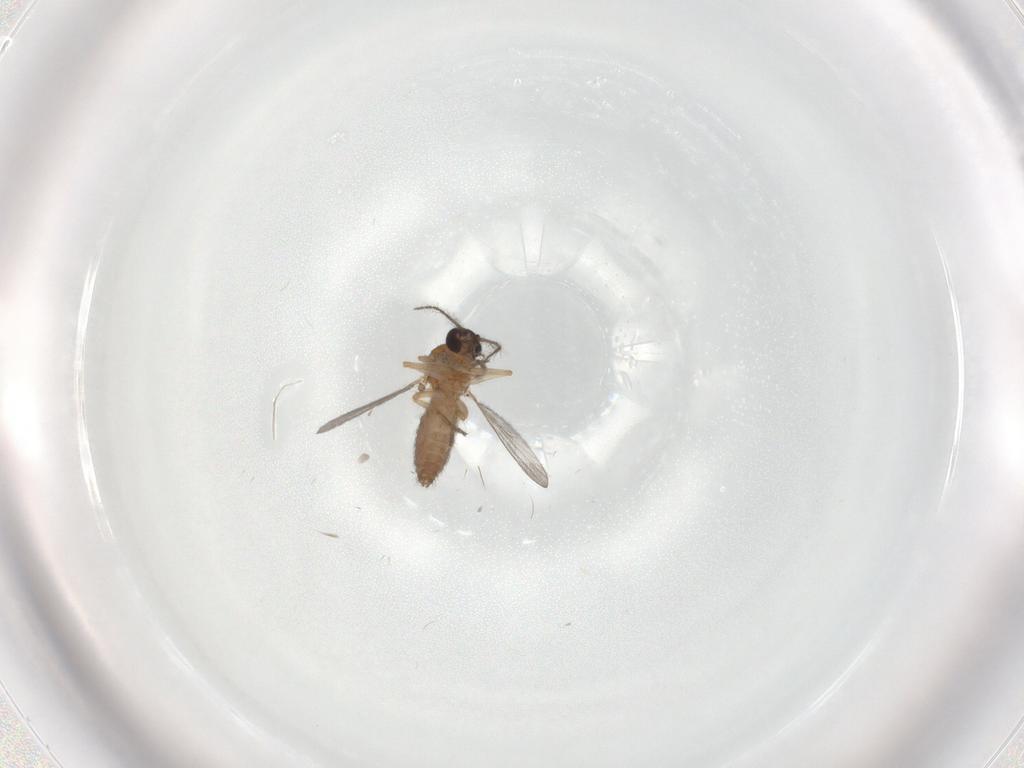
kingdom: Animalia
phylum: Arthropoda
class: Insecta
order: Diptera
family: Ceratopogonidae
